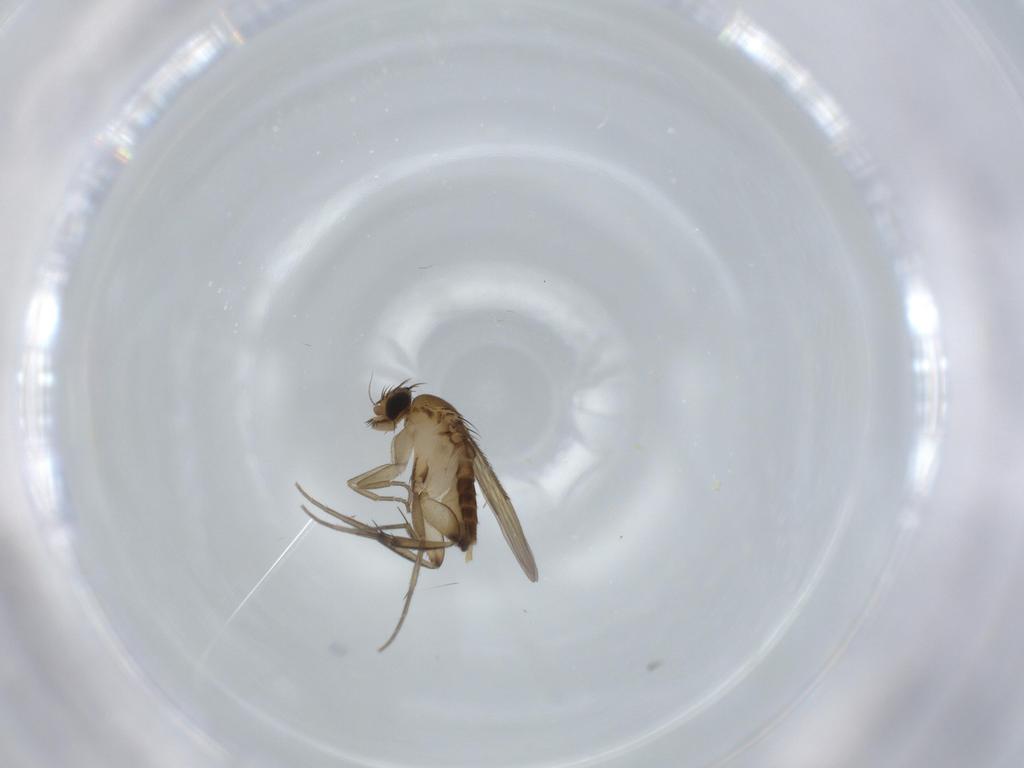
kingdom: Animalia
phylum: Arthropoda
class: Insecta
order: Diptera
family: Phoridae
